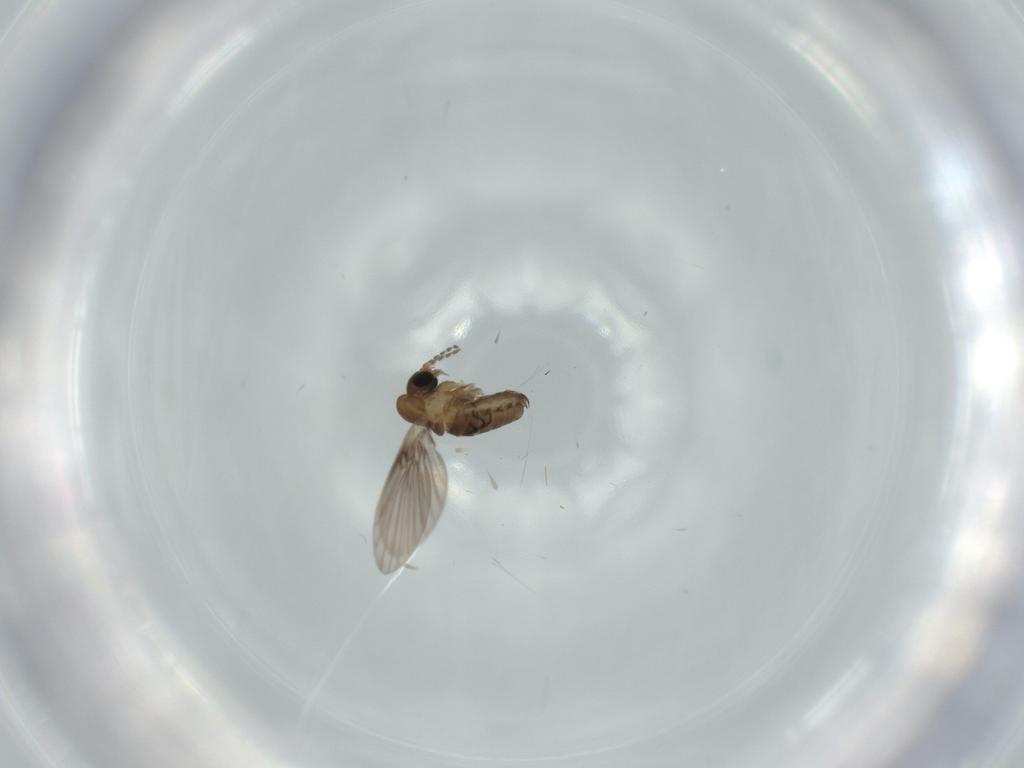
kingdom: Animalia
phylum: Arthropoda
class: Insecta
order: Diptera
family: Psychodidae
